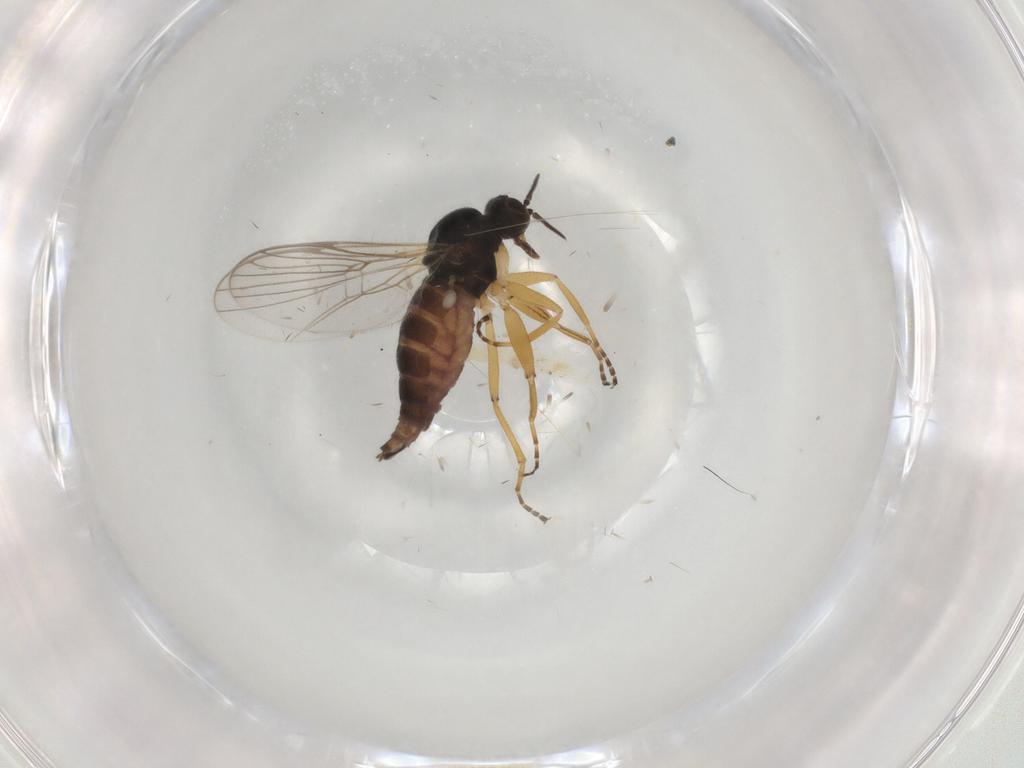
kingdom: Animalia
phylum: Arthropoda
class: Insecta
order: Diptera
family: Hybotidae
